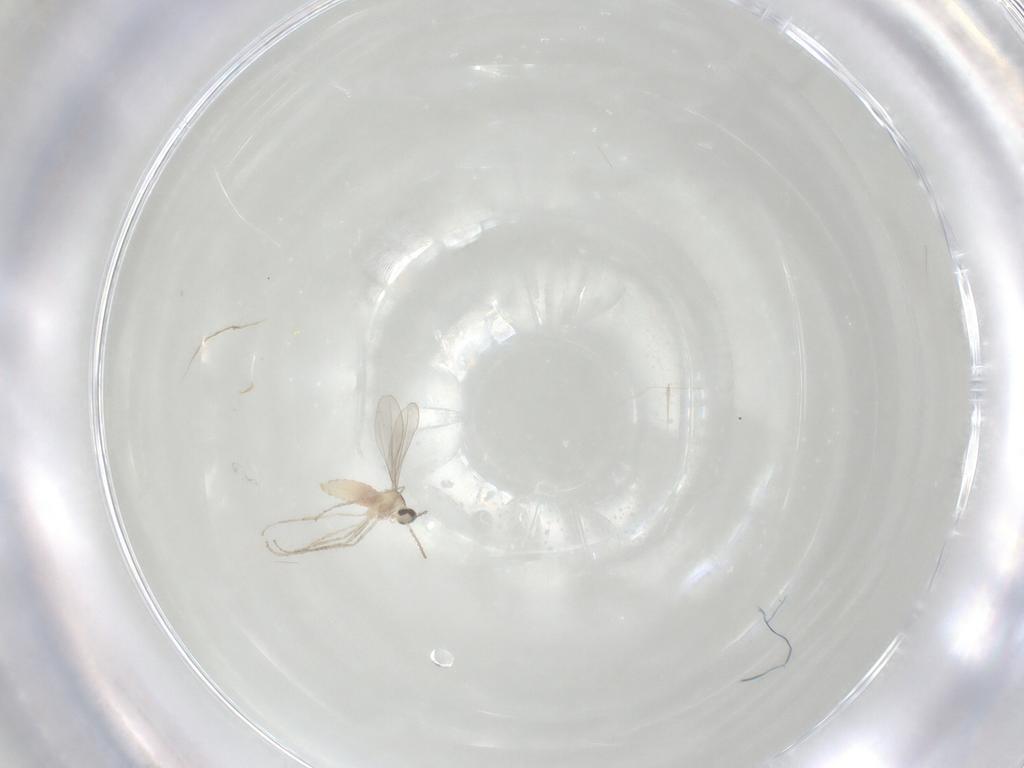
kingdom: Animalia
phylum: Arthropoda
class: Insecta
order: Diptera
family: Cecidomyiidae
